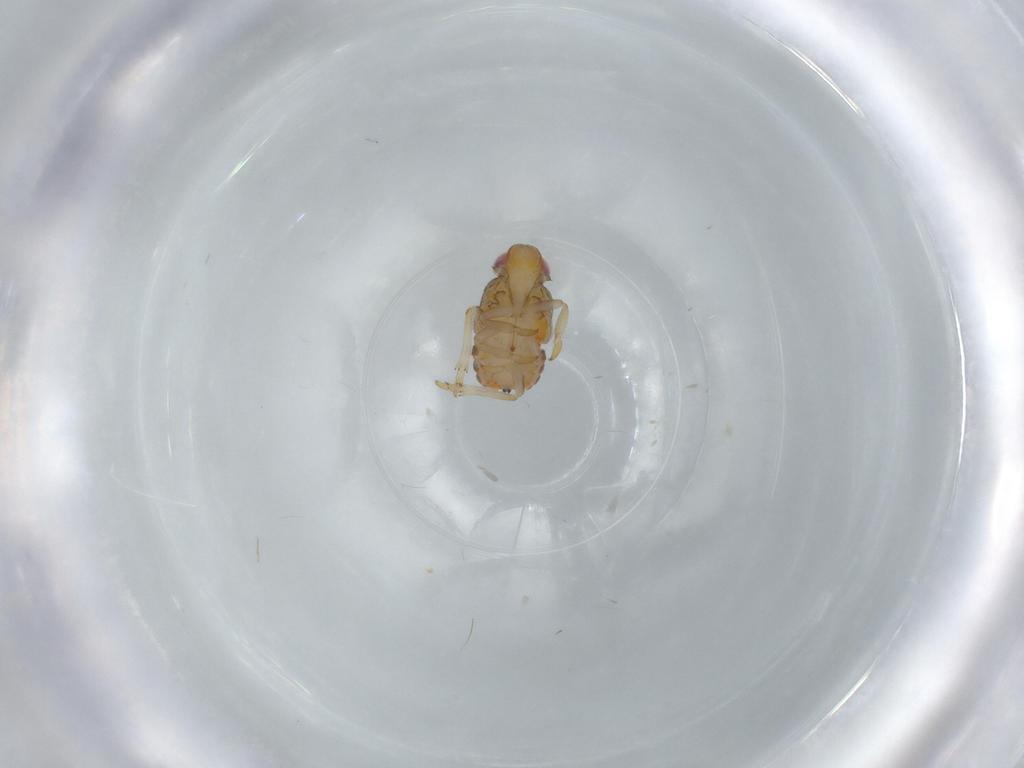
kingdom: Animalia
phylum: Arthropoda
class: Insecta
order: Hemiptera
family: Issidae
